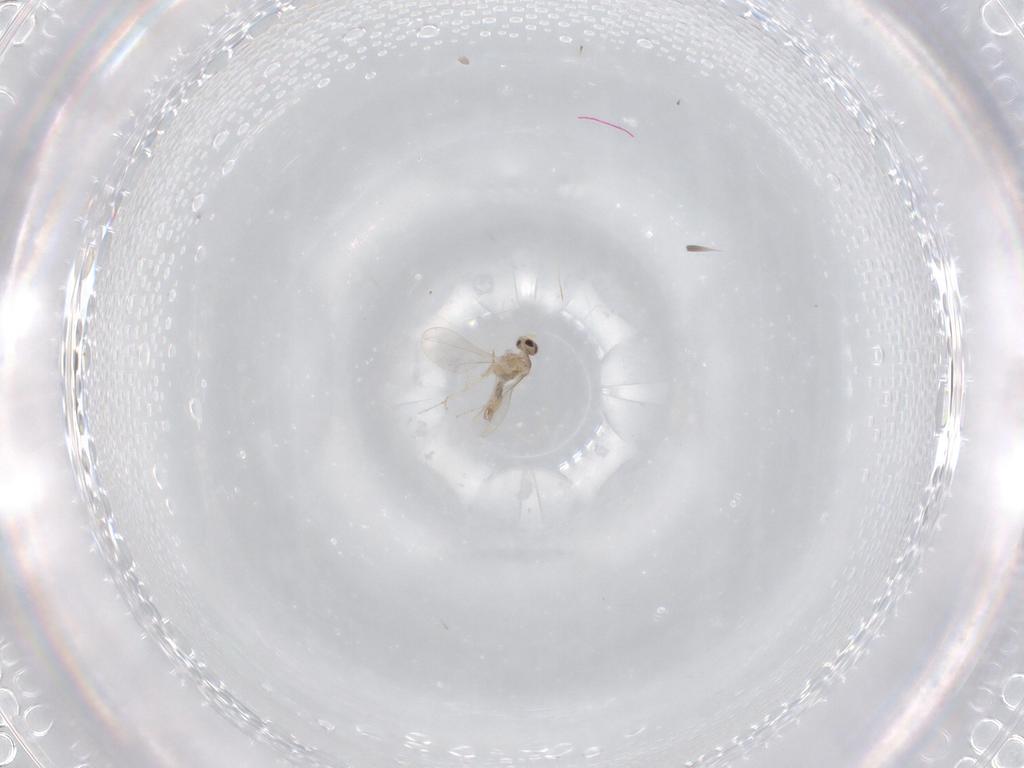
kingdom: Animalia
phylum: Arthropoda
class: Insecta
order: Diptera
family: Cecidomyiidae
